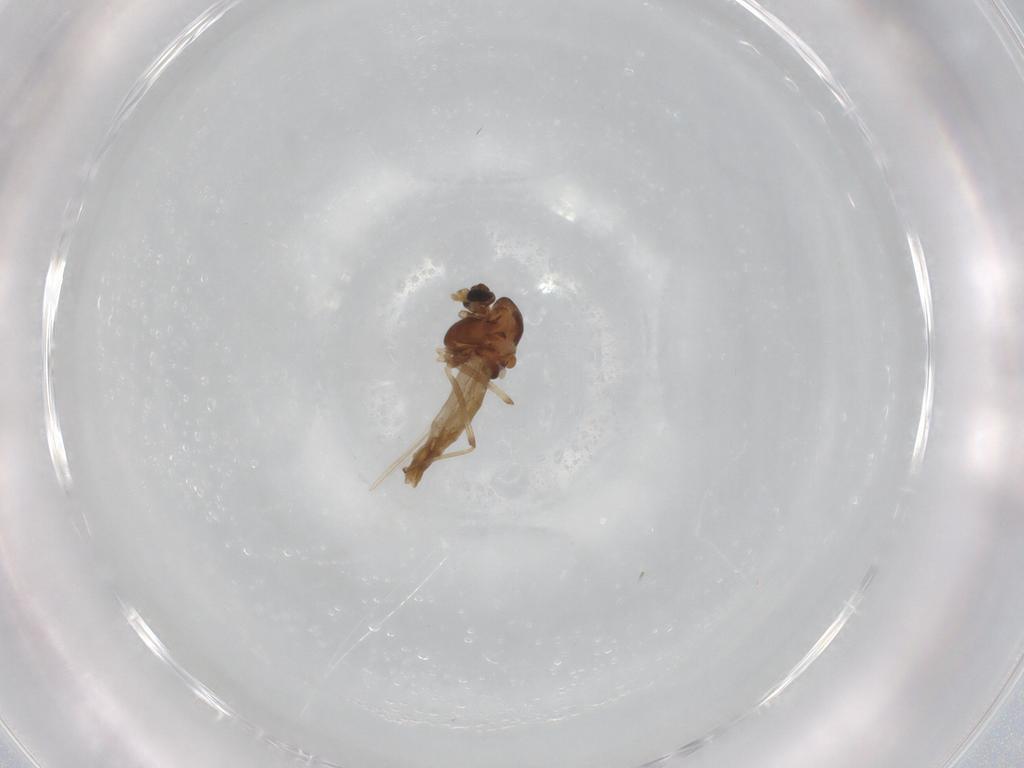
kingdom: Animalia
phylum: Arthropoda
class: Insecta
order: Diptera
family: Chironomidae
